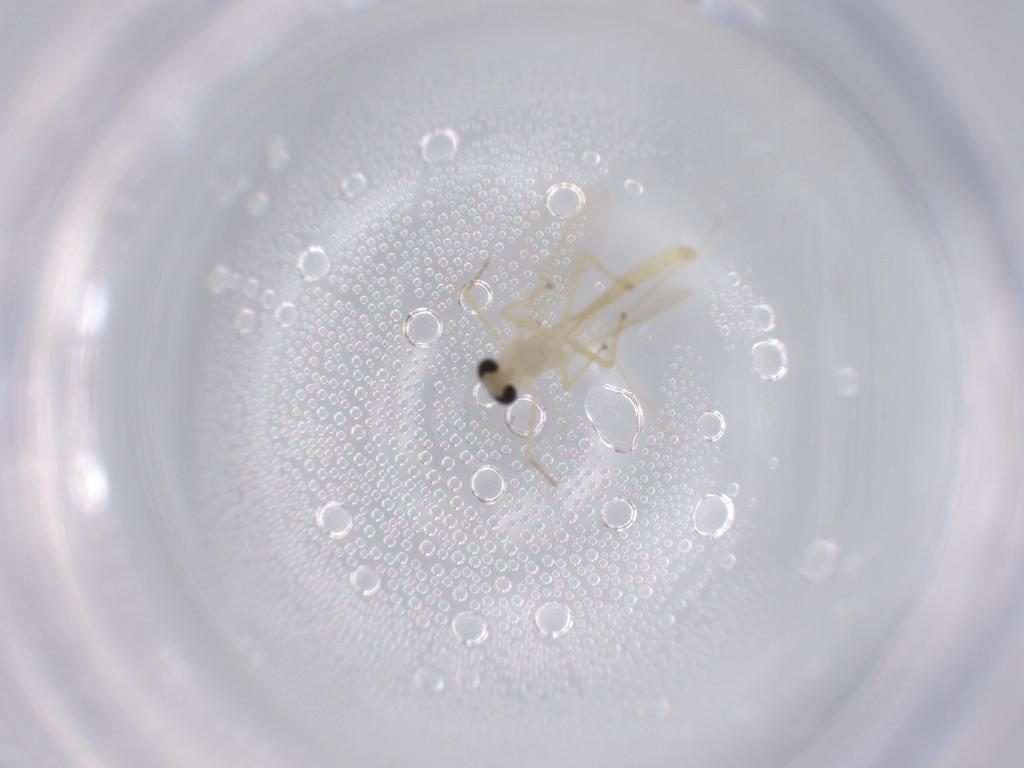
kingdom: Animalia
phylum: Arthropoda
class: Insecta
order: Diptera
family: Chironomidae
